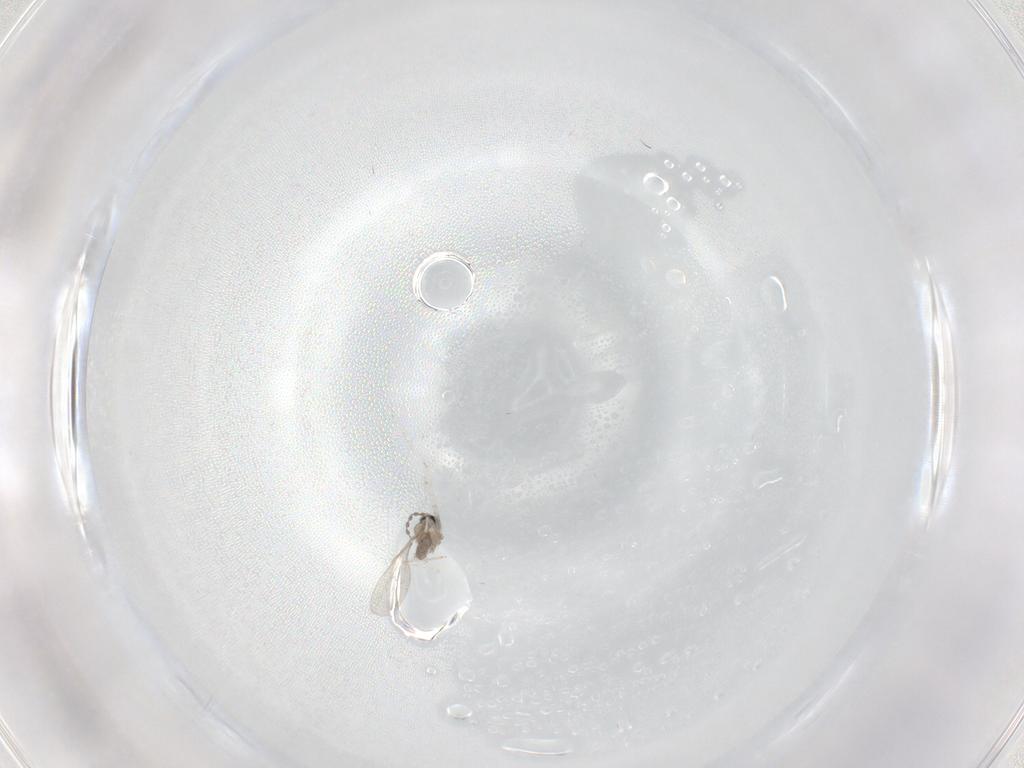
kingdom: Animalia
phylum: Arthropoda
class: Insecta
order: Diptera
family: Cecidomyiidae
